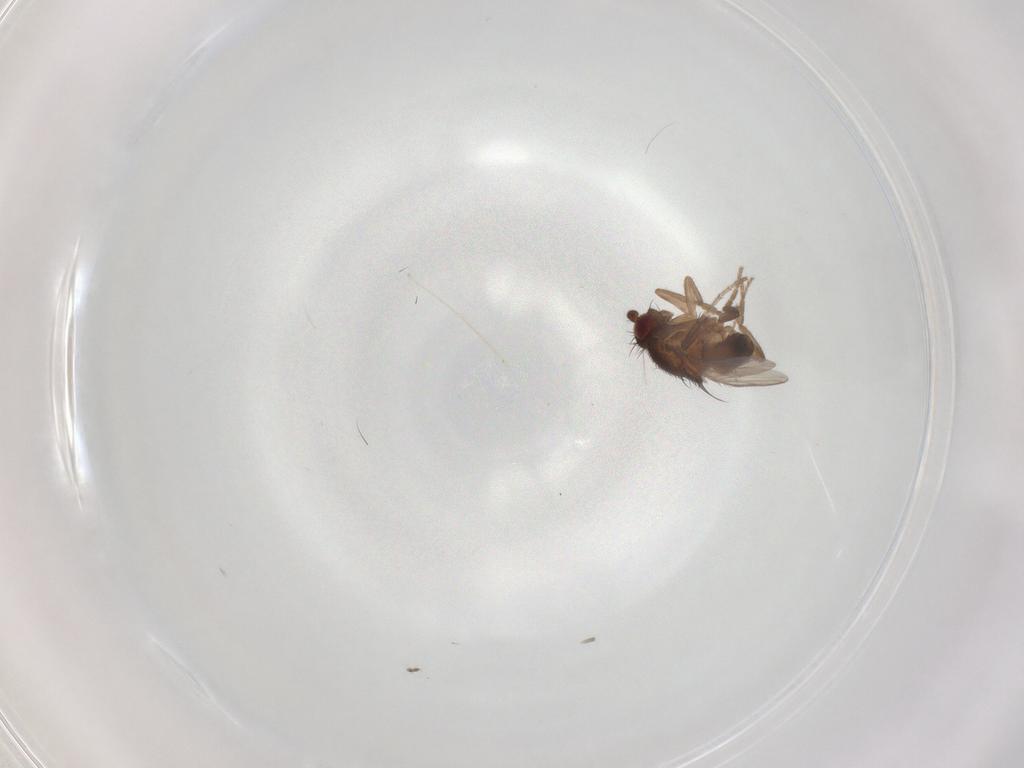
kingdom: Animalia
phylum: Arthropoda
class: Insecta
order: Diptera
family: Sphaeroceridae
